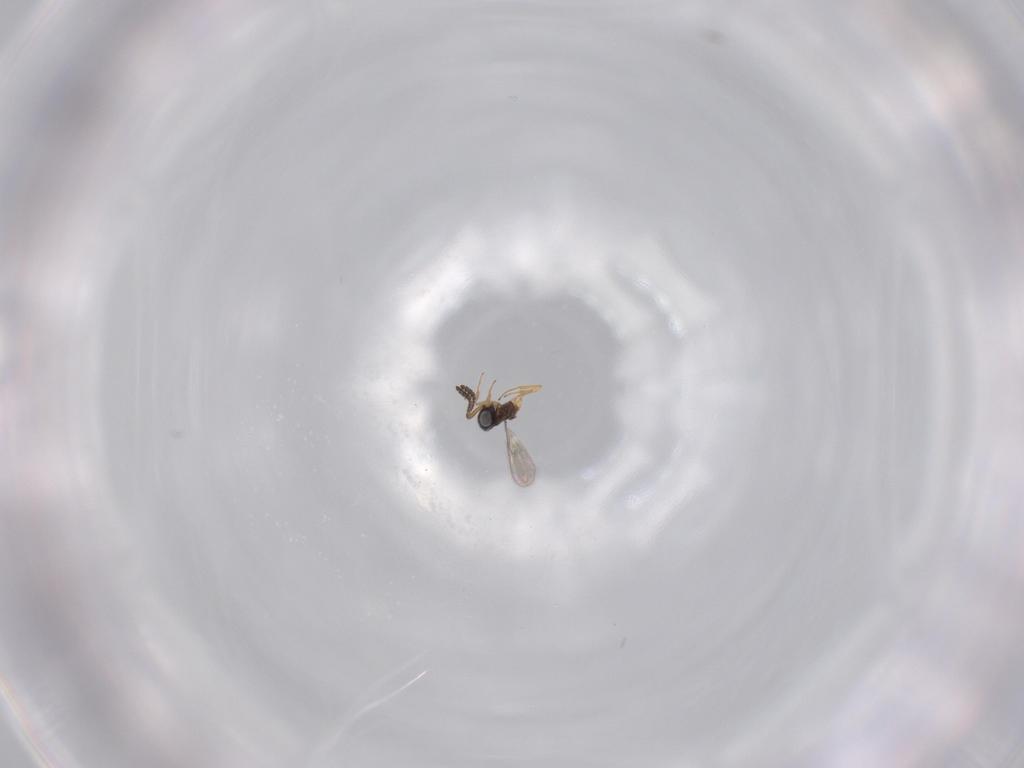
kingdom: Animalia
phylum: Arthropoda
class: Insecta
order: Hymenoptera
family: Scelionidae
